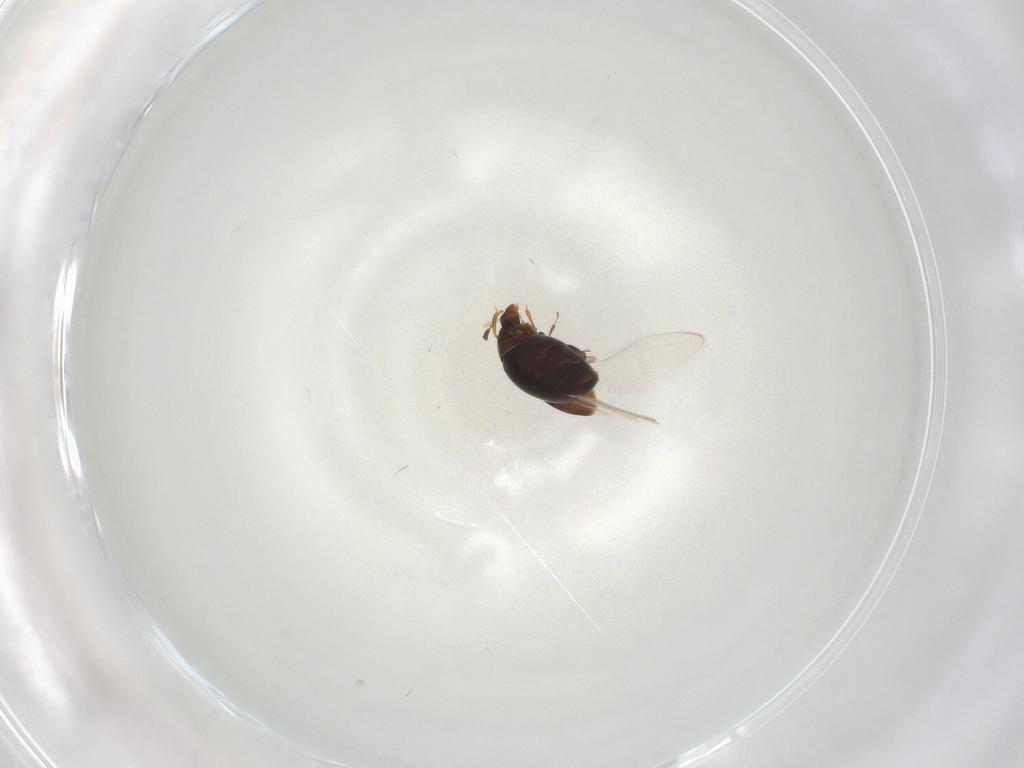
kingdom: Animalia
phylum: Arthropoda
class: Insecta
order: Coleoptera
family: Corylophidae
